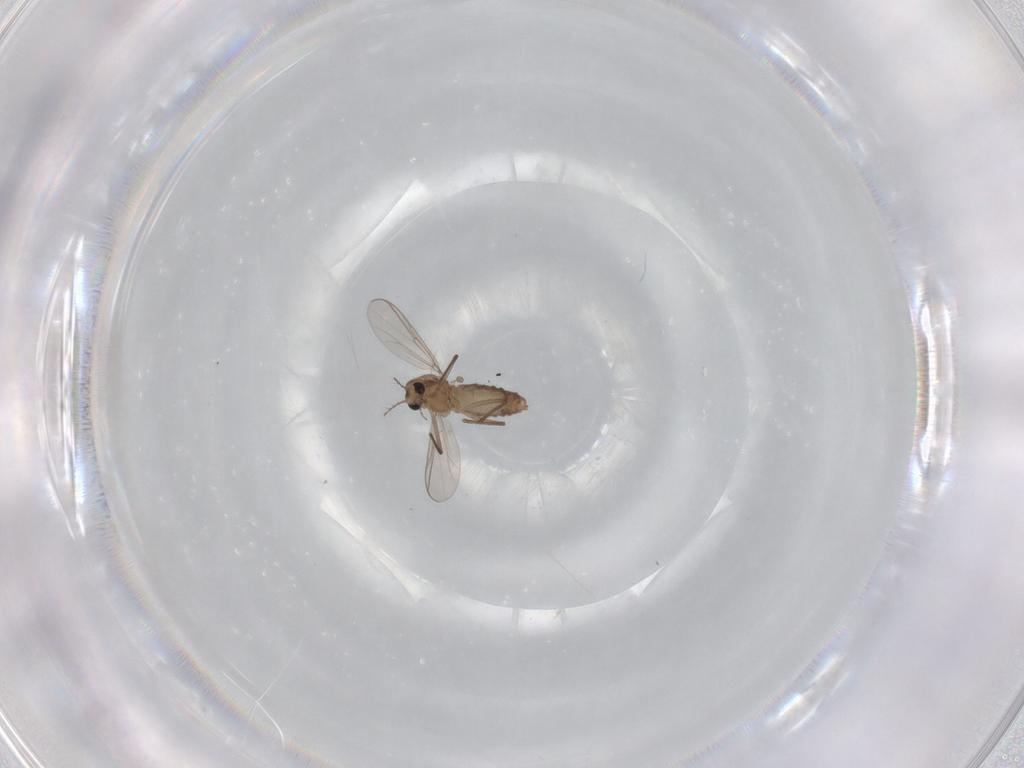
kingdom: Animalia
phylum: Arthropoda
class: Insecta
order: Diptera
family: Chironomidae
